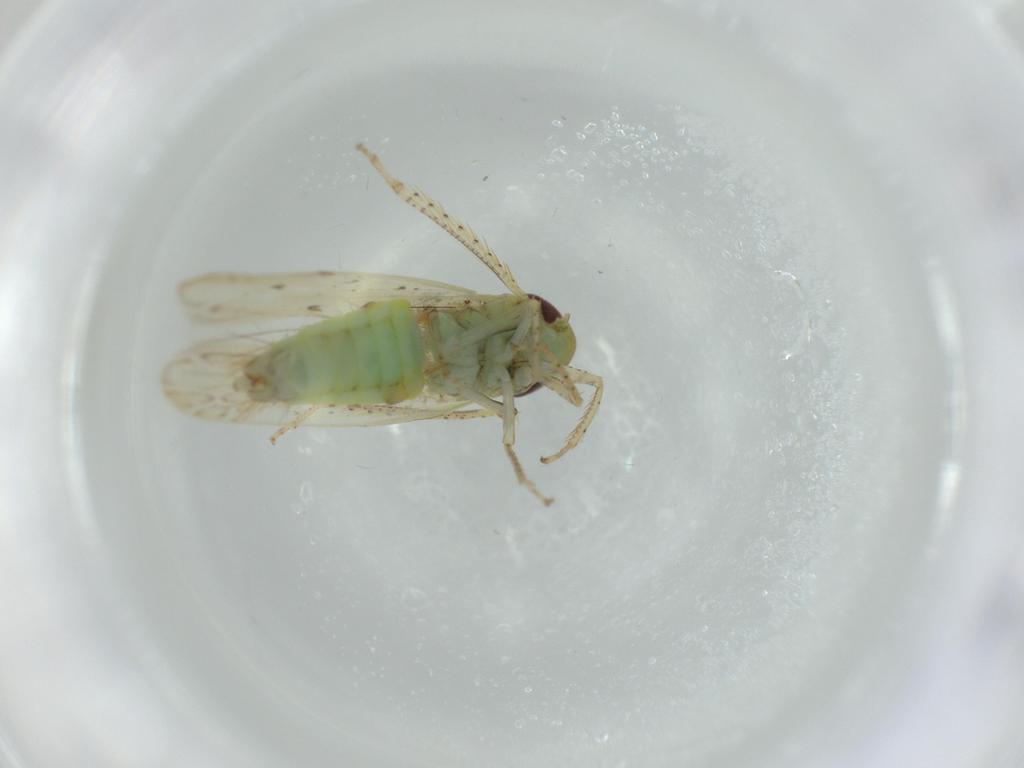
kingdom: Animalia
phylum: Arthropoda
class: Insecta
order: Hemiptera
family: Cicadellidae
